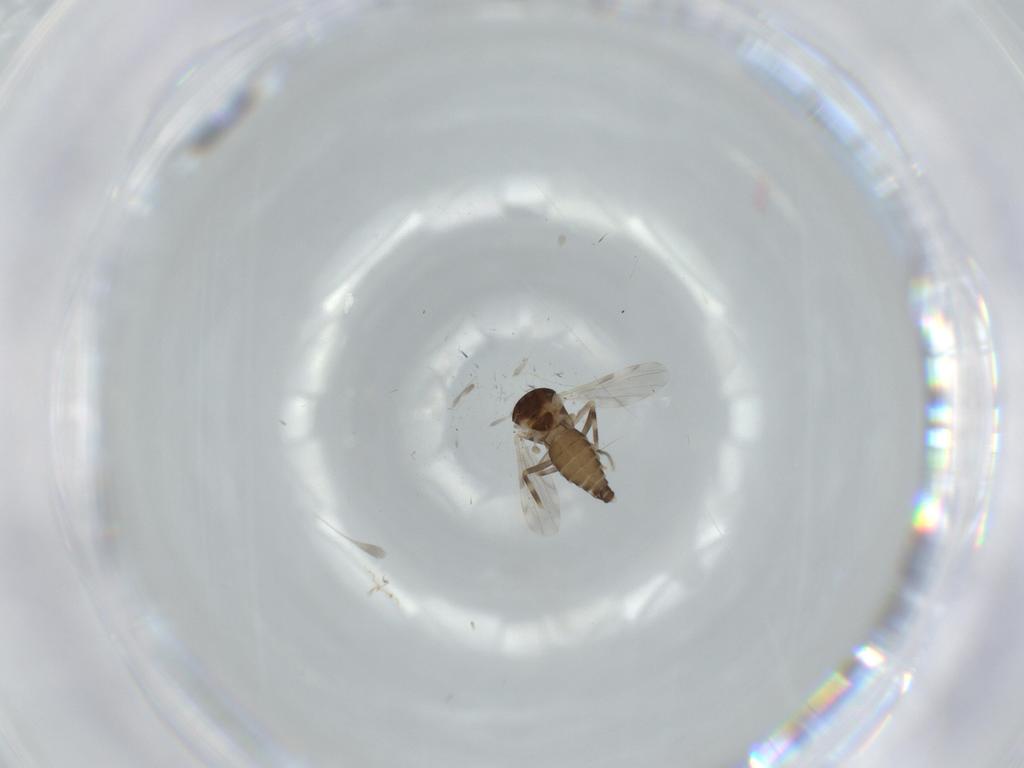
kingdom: Animalia
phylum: Arthropoda
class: Insecta
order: Diptera
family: Ceratopogonidae
